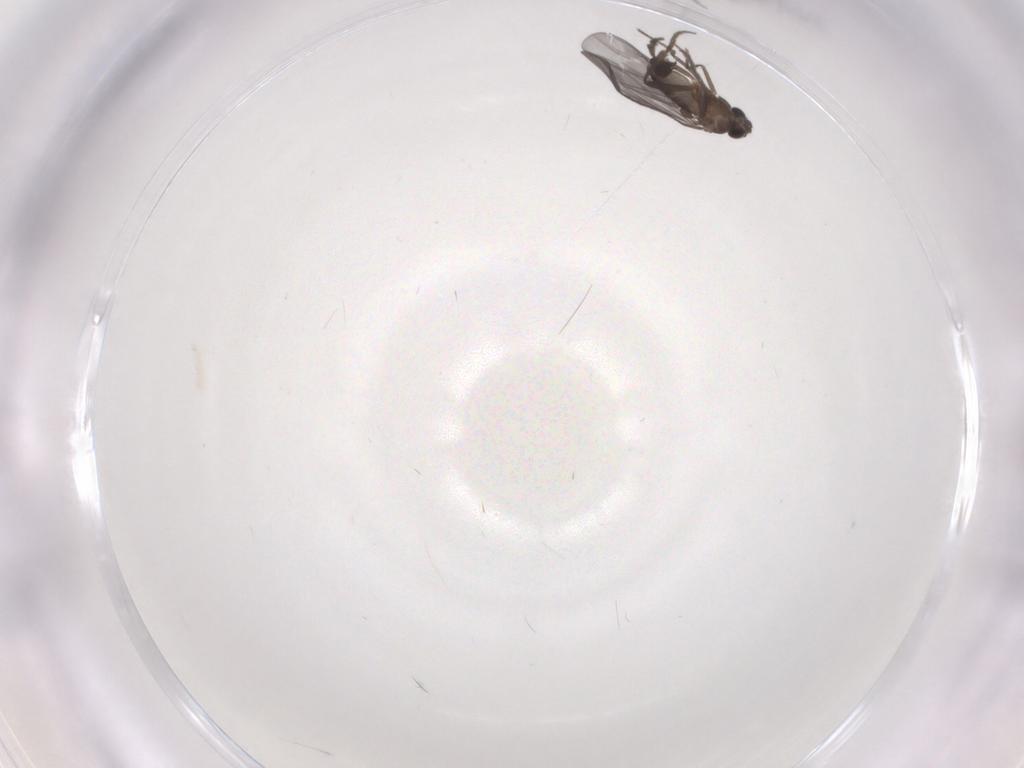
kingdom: Animalia
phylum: Arthropoda
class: Insecta
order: Diptera
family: Phoridae
